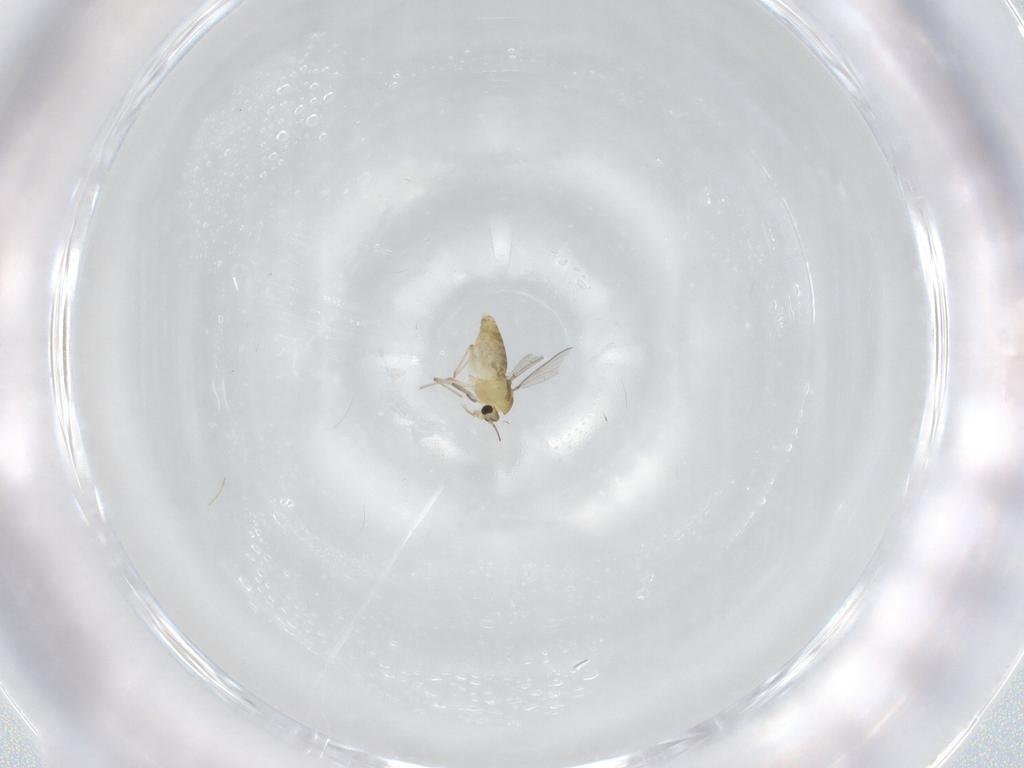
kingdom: Animalia
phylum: Arthropoda
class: Insecta
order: Diptera
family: Chironomidae
